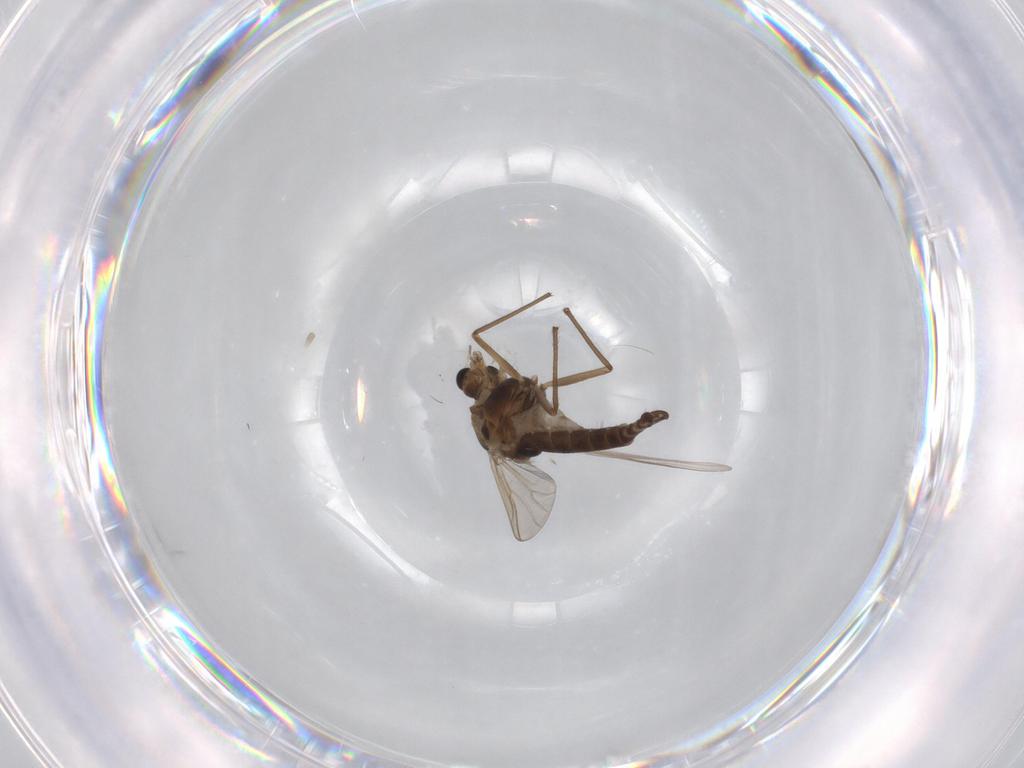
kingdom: Animalia
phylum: Arthropoda
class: Insecta
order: Diptera
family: Chironomidae
